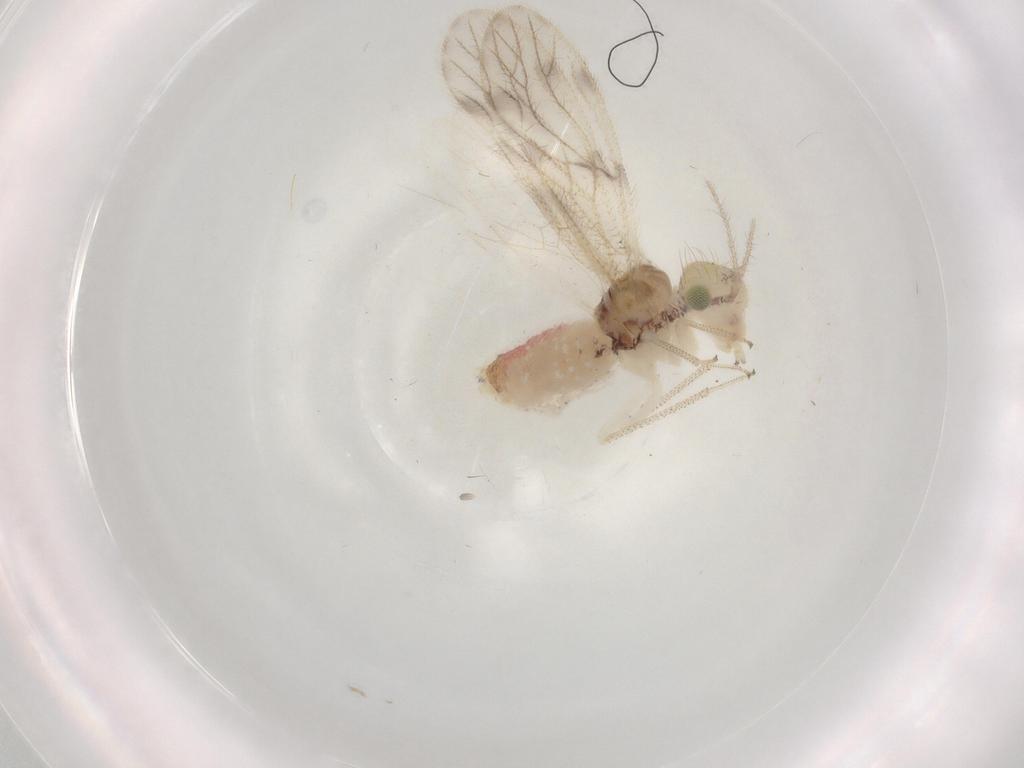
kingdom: Animalia
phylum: Arthropoda
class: Insecta
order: Psocodea
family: Pseudocaeciliidae
